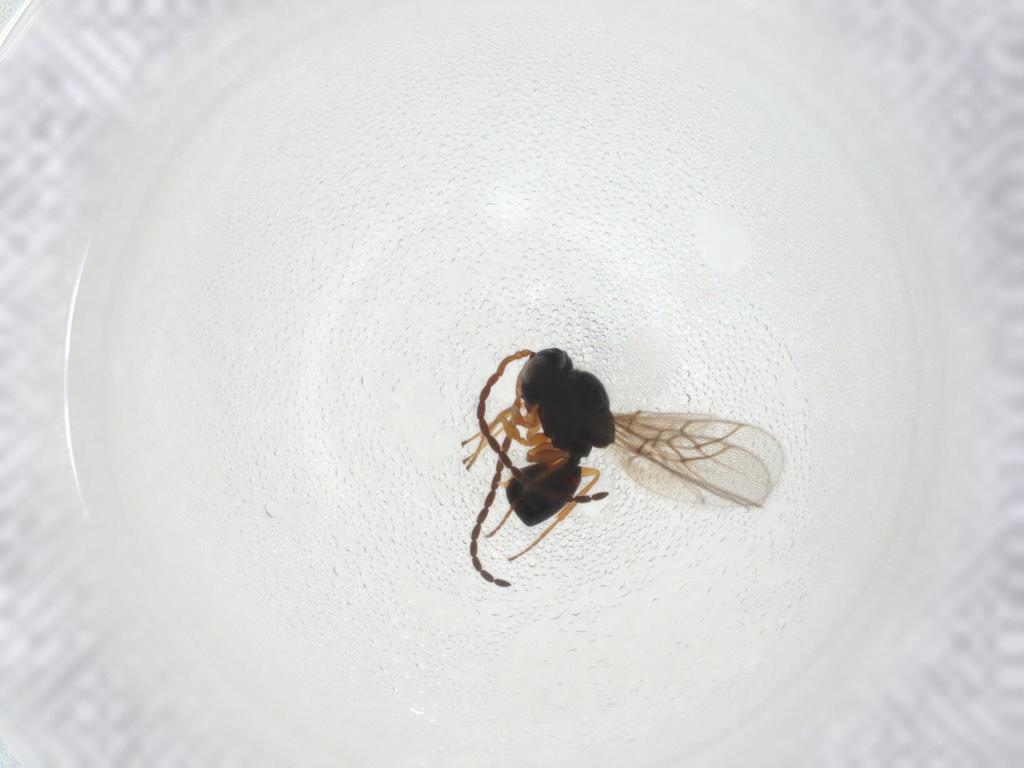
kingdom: Animalia
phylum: Arthropoda
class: Insecta
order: Hymenoptera
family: Figitidae
